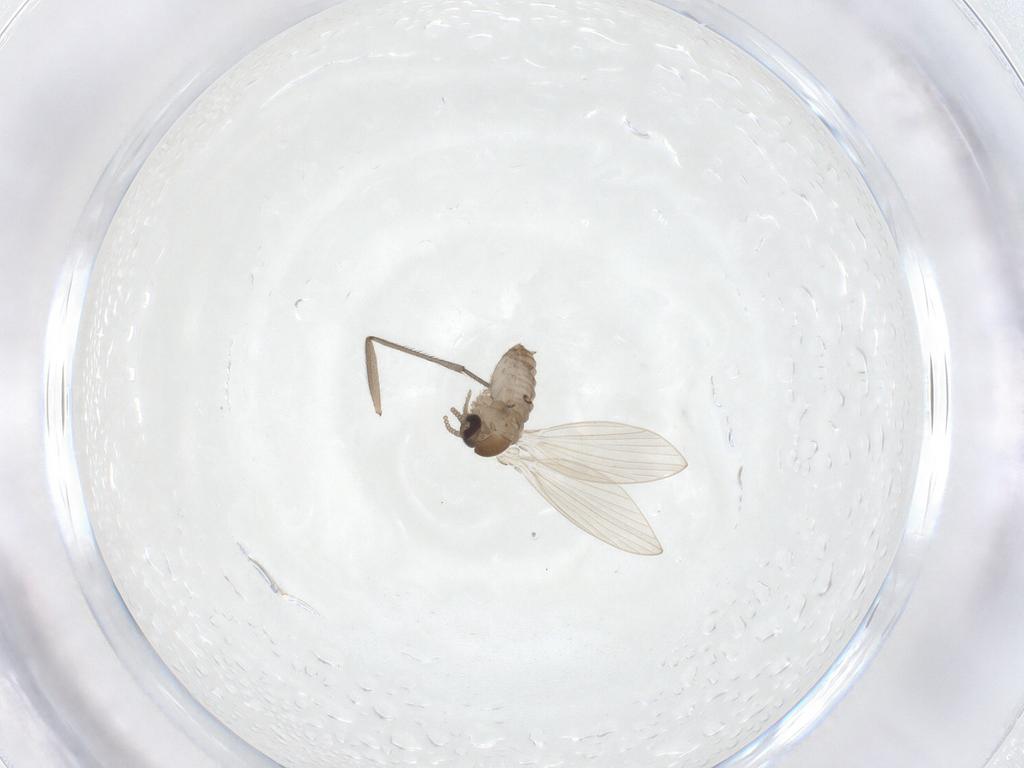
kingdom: Animalia
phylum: Arthropoda
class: Insecta
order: Diptera
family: Psychodidae
